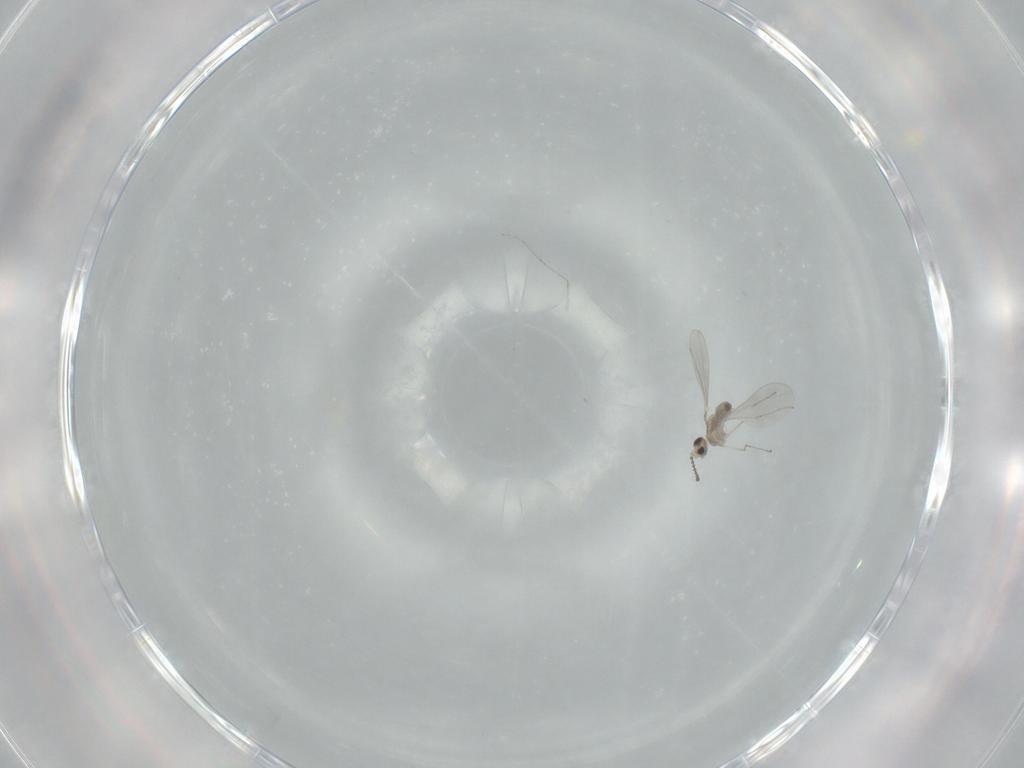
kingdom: Animalia
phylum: Arthropoda
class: Insecta
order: Diptera
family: Cecidomyiidae
